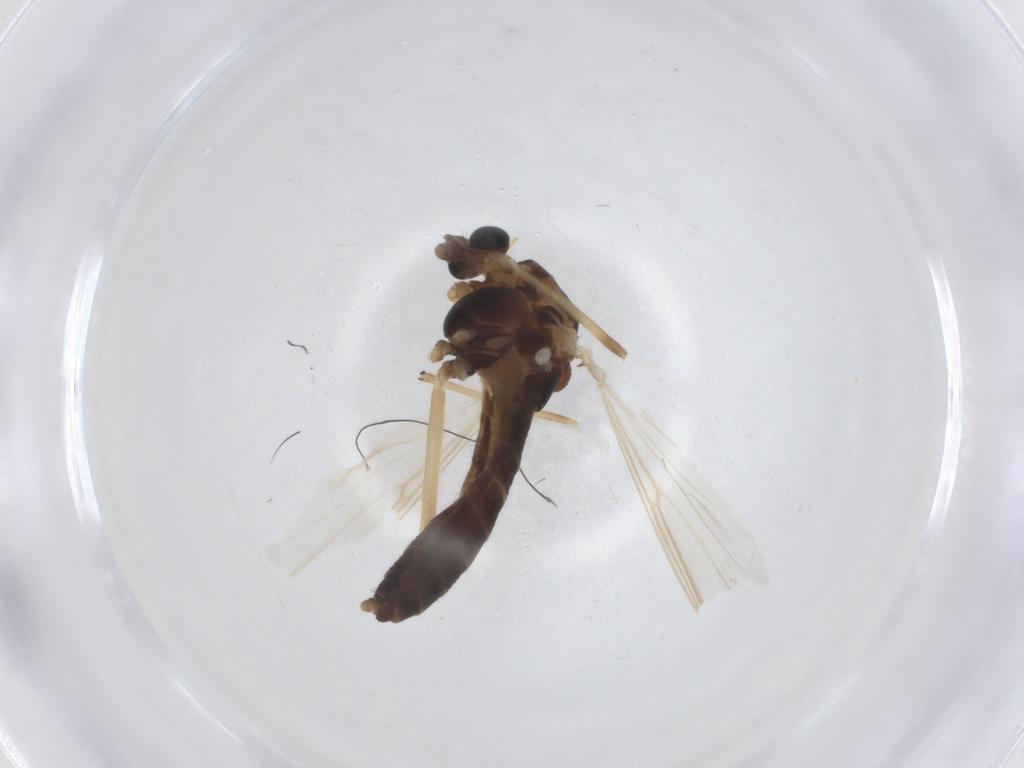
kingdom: Animalia
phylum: Arthropoda
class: Insecta
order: Diptera
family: Chironomidae
